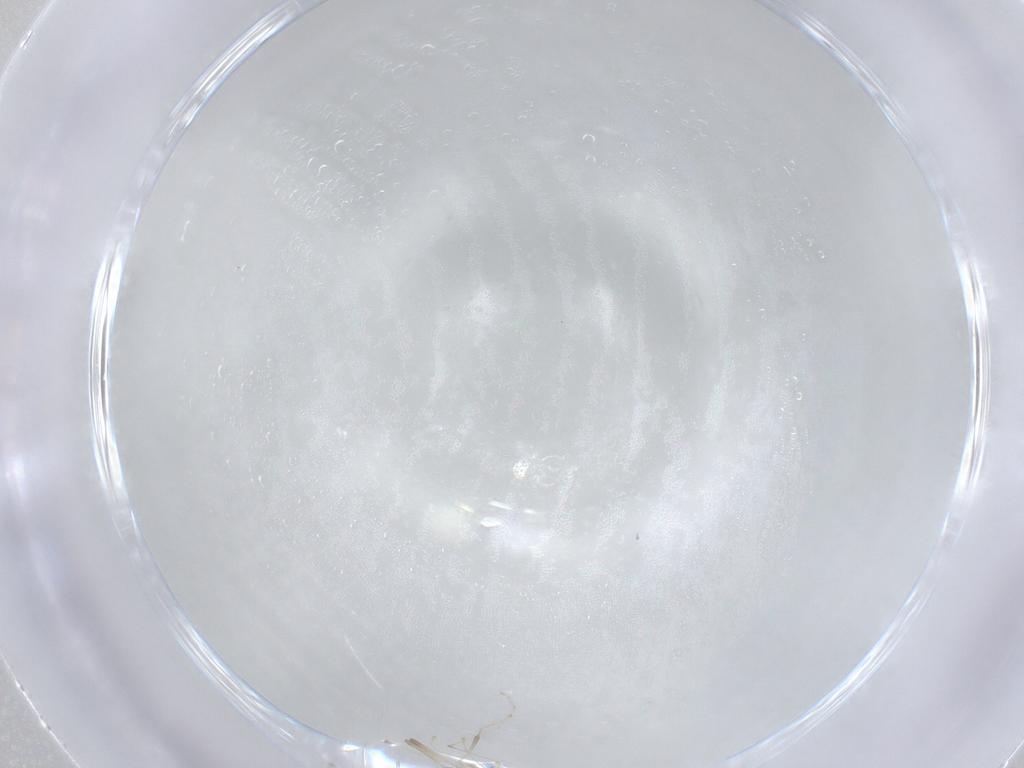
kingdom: Animalia
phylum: Arthropoda
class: Insecta
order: Diptera
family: Cecidomyiidae
